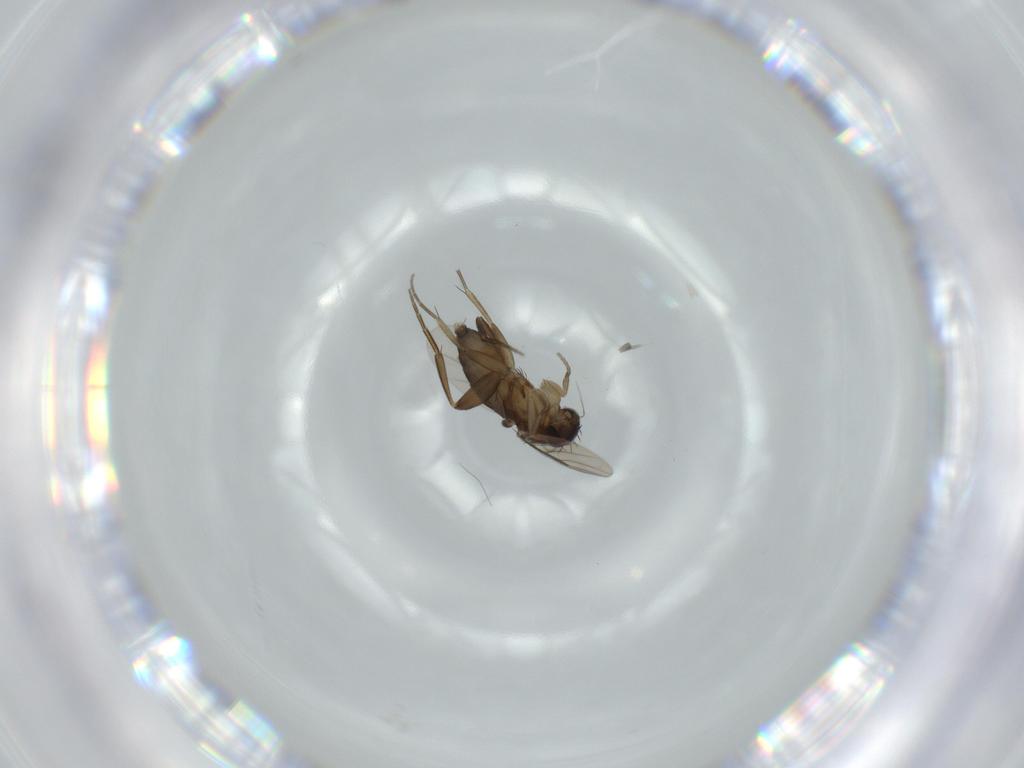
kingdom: Animalia
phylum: Arthropoda
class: Insecta
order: Diptera
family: Phoridae
